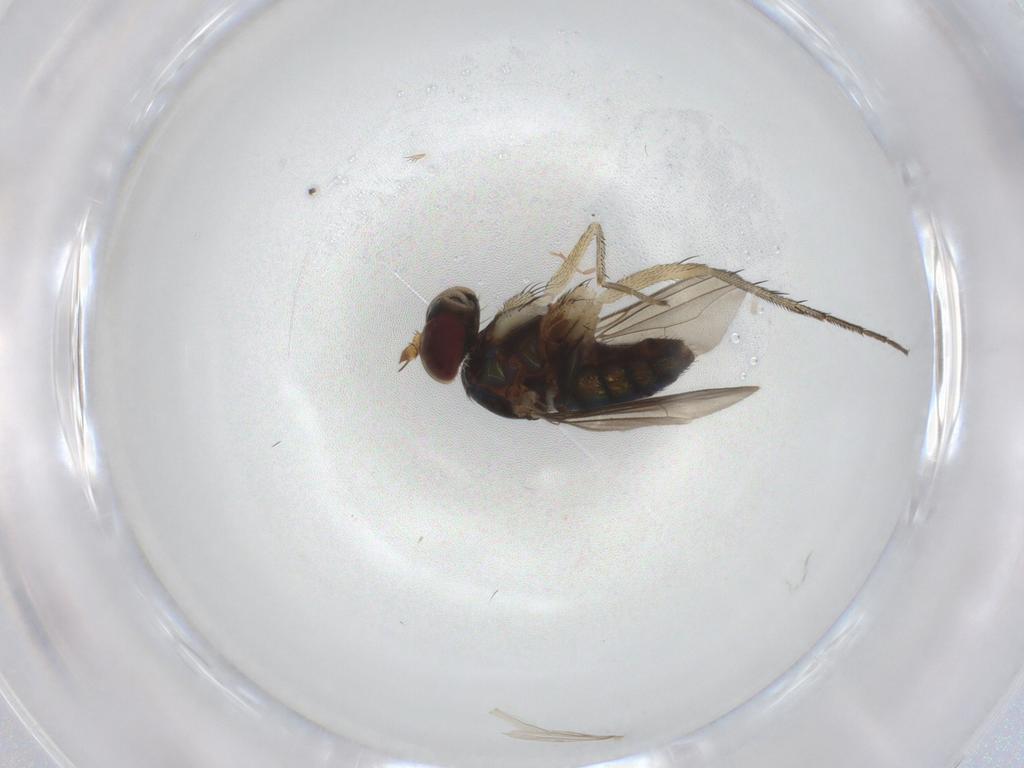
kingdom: Animalia
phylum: Arthropoda
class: Insecta
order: Diptera
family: Dolichopodidae
